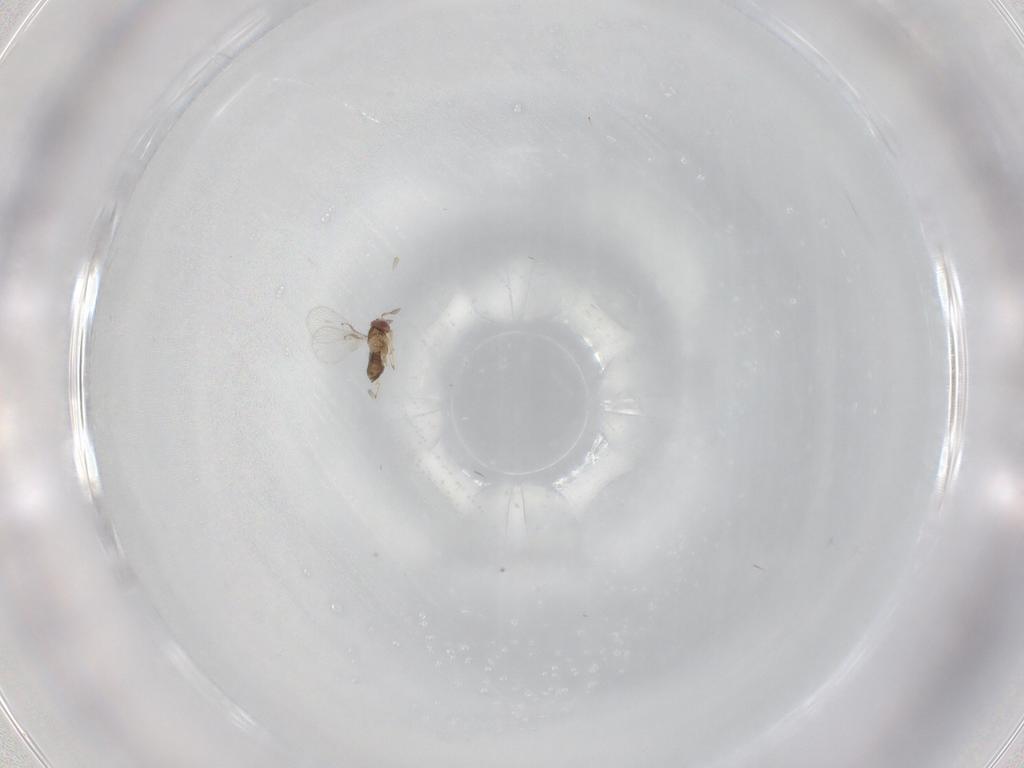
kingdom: Animalia
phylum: Arthropoda
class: Insecta
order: Hymenoptera
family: Trichogrammatidae
